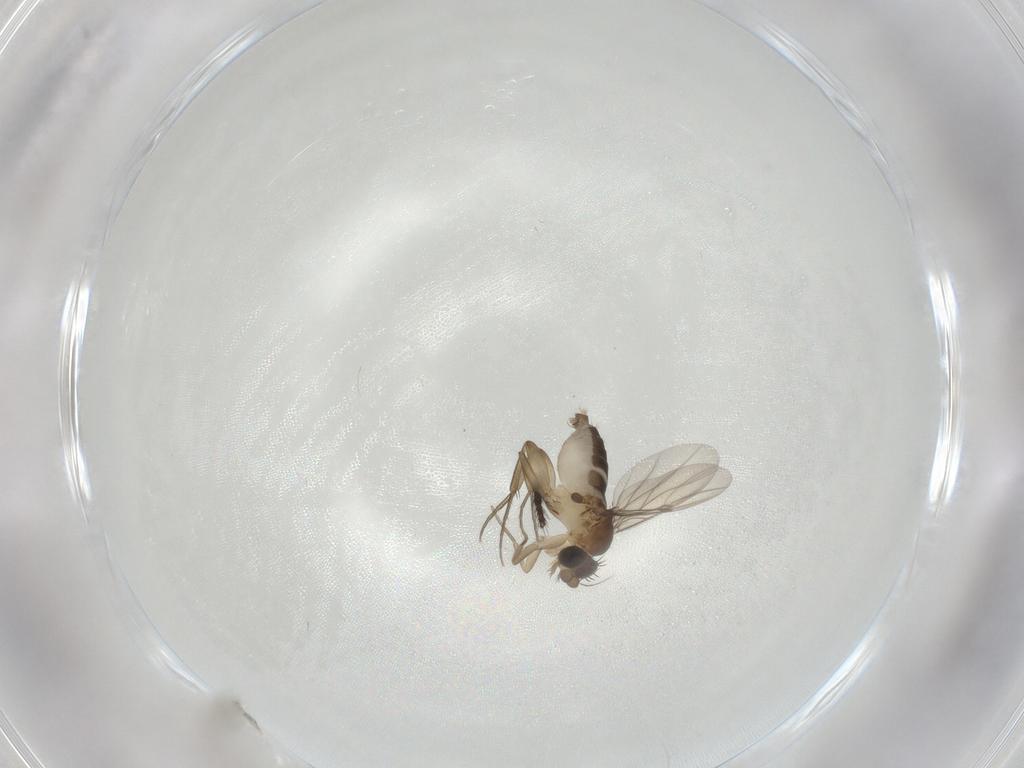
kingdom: Animalia
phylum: Arthropoda
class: Insecta
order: Diptera
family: Phoridae
